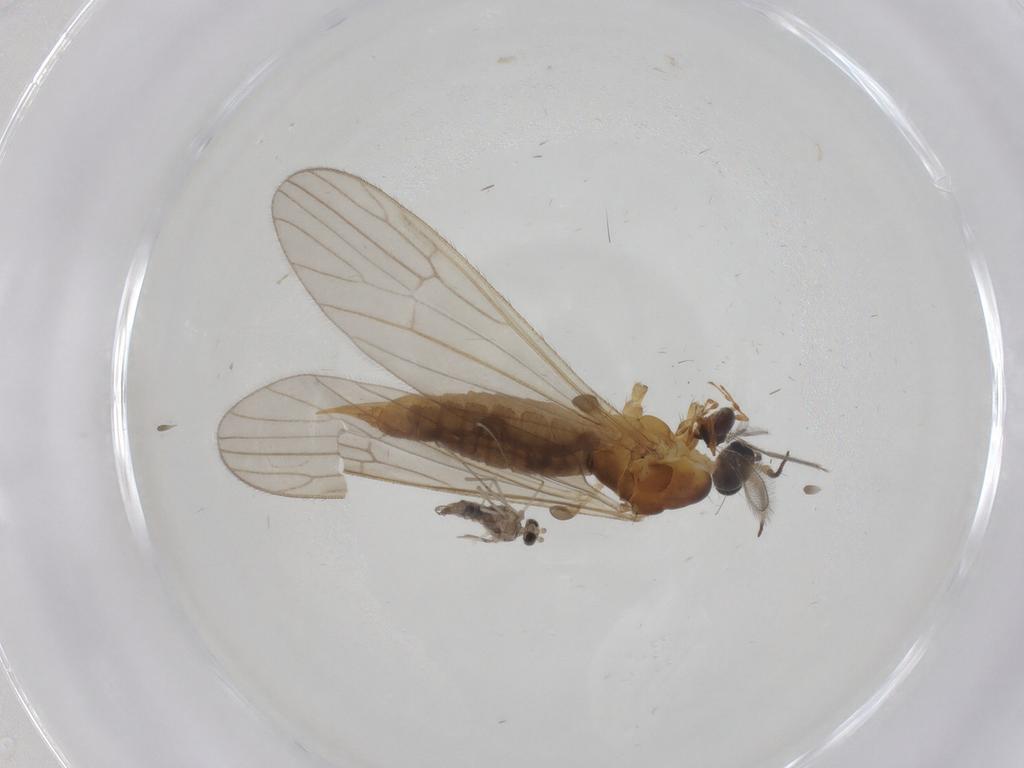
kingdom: Animalia
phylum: Arthropoda
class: Insecta
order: Diptera
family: Limoniidae
